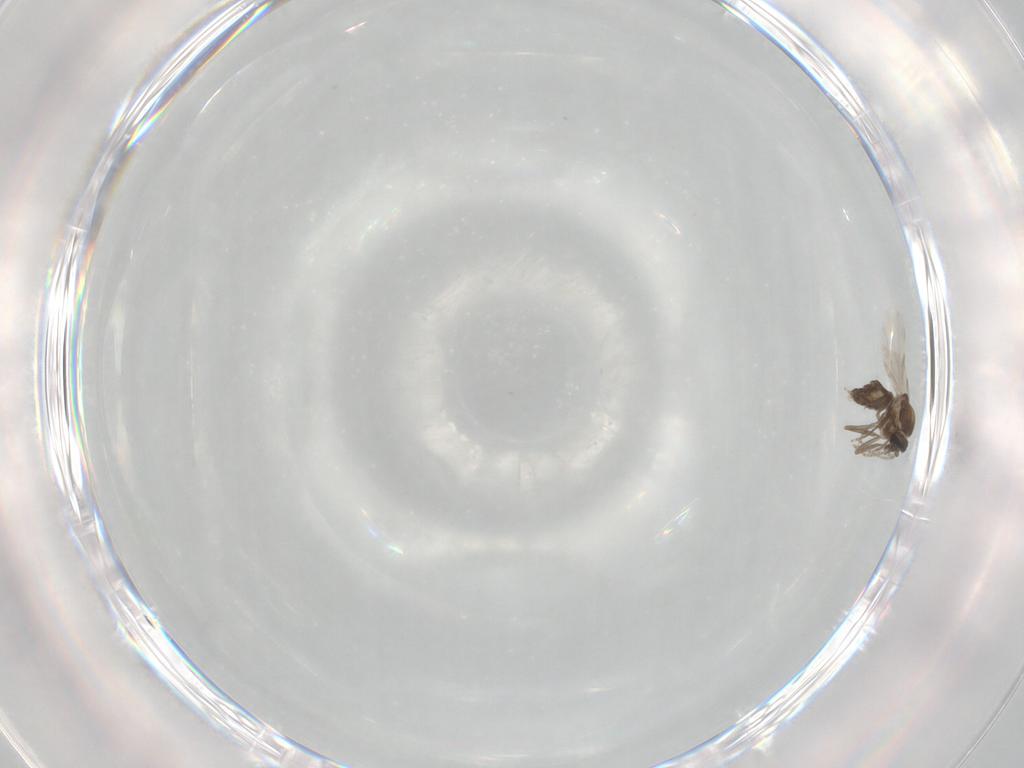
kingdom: Animalia
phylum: Arthropoda
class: Insecta
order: Diptera
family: Ceratopogonidae
